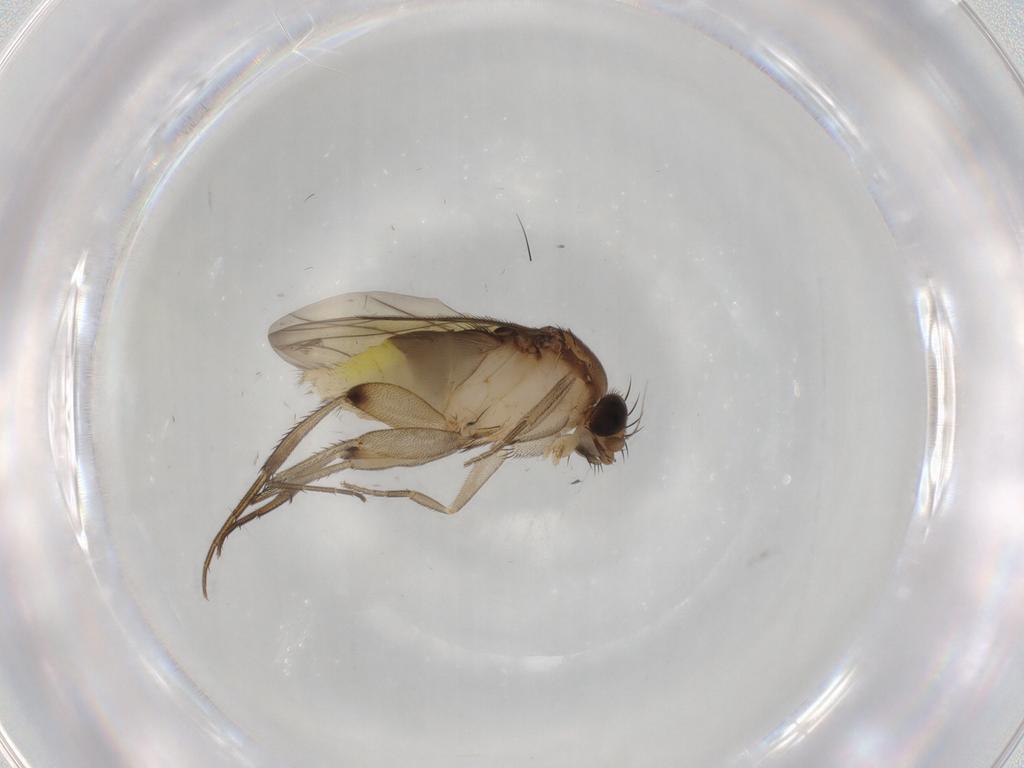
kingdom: Animalia
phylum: Arthropoda
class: Insecta
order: Diptera
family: Phoridae
